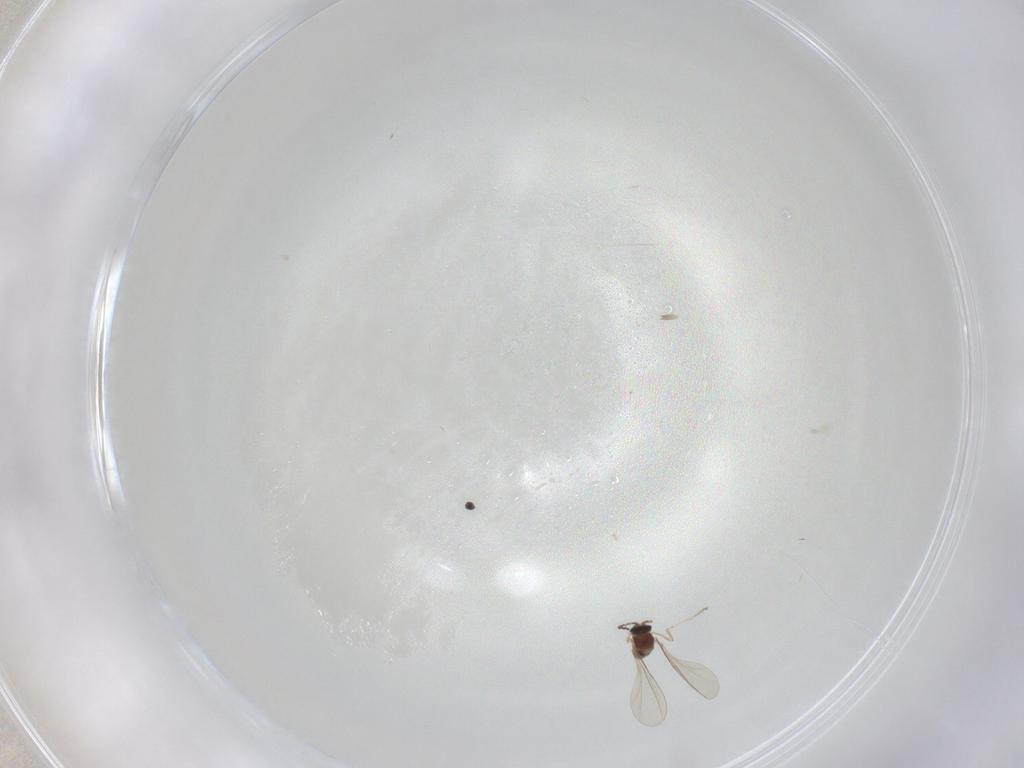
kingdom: Animalia
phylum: Arthropoda
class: Insecta
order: Diptera
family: Cecidomyiidae
